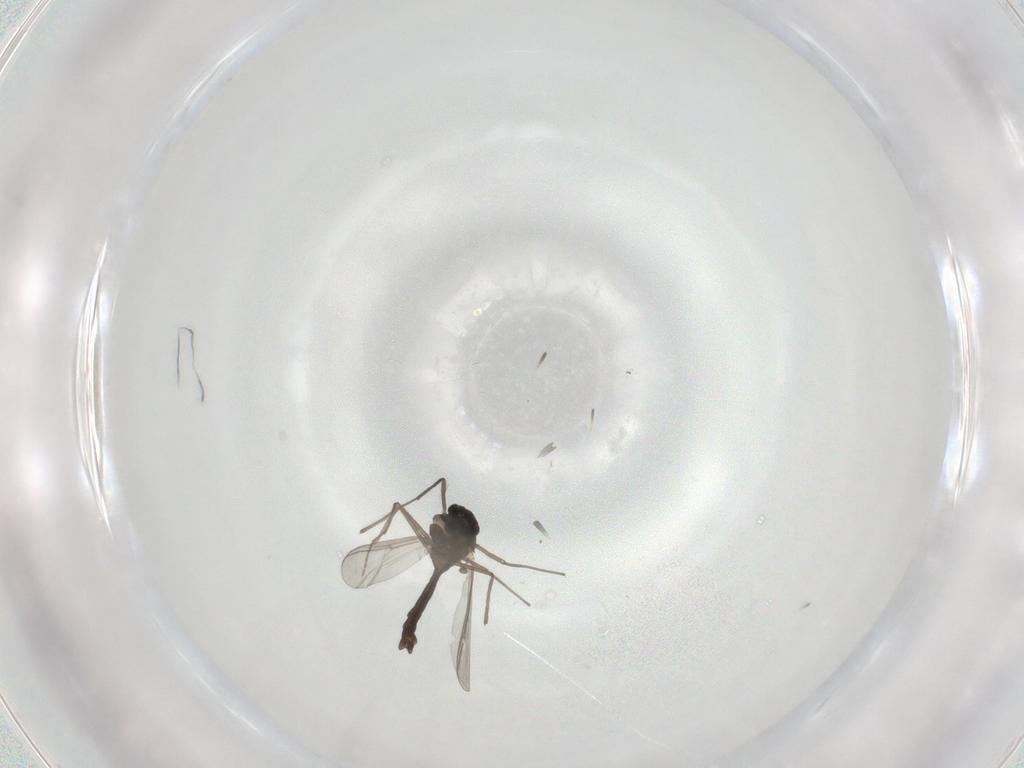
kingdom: Animalia
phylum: Arthropoda
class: Insecta
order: Diptera
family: Chironomidae
